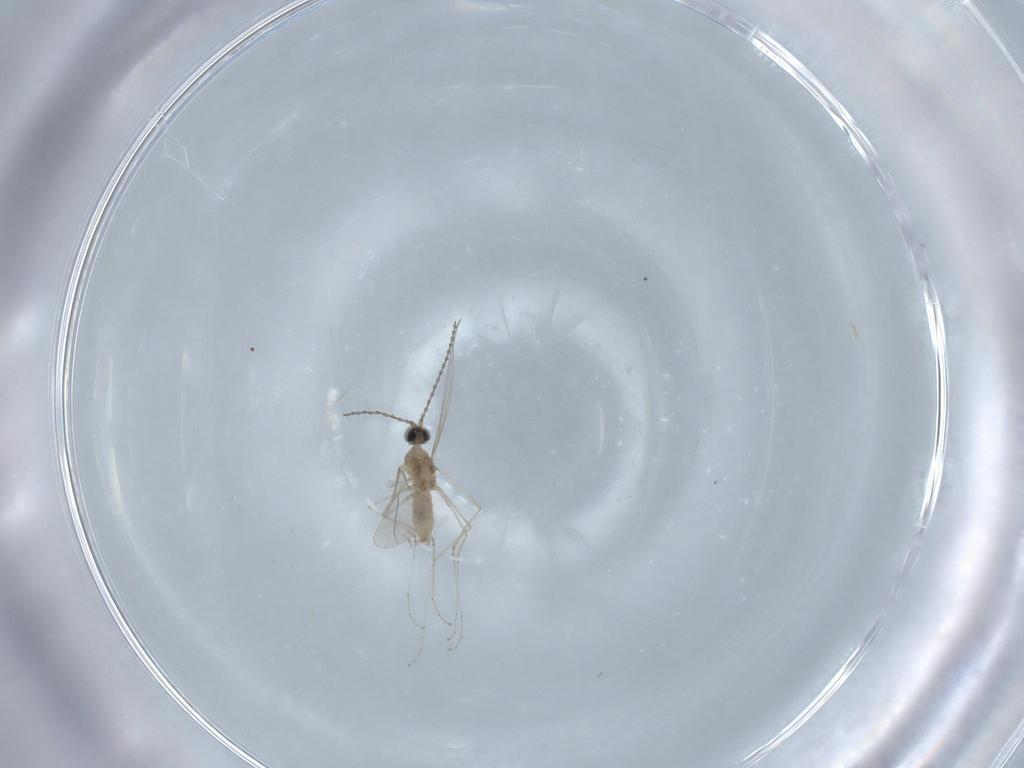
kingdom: Animalia
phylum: Arthropoda
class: Insecta
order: Diptera
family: Cecidomyiidae
